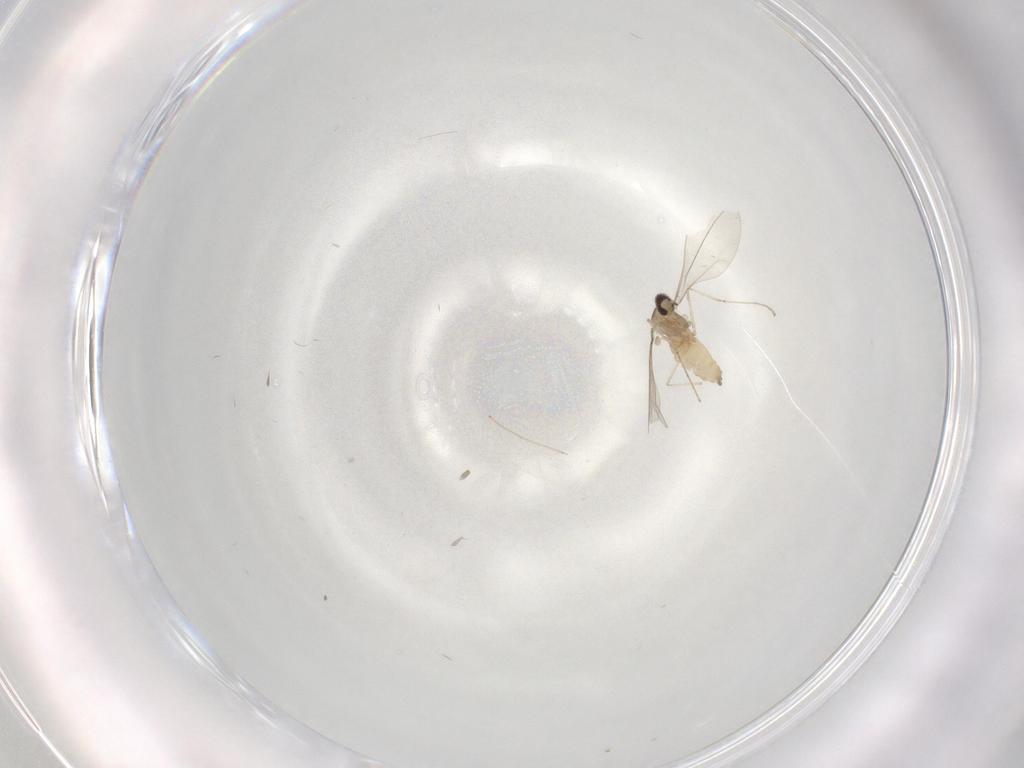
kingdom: Animalia
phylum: Arthropoda
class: Insecta
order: Diptera
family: Cecidomyiidae
